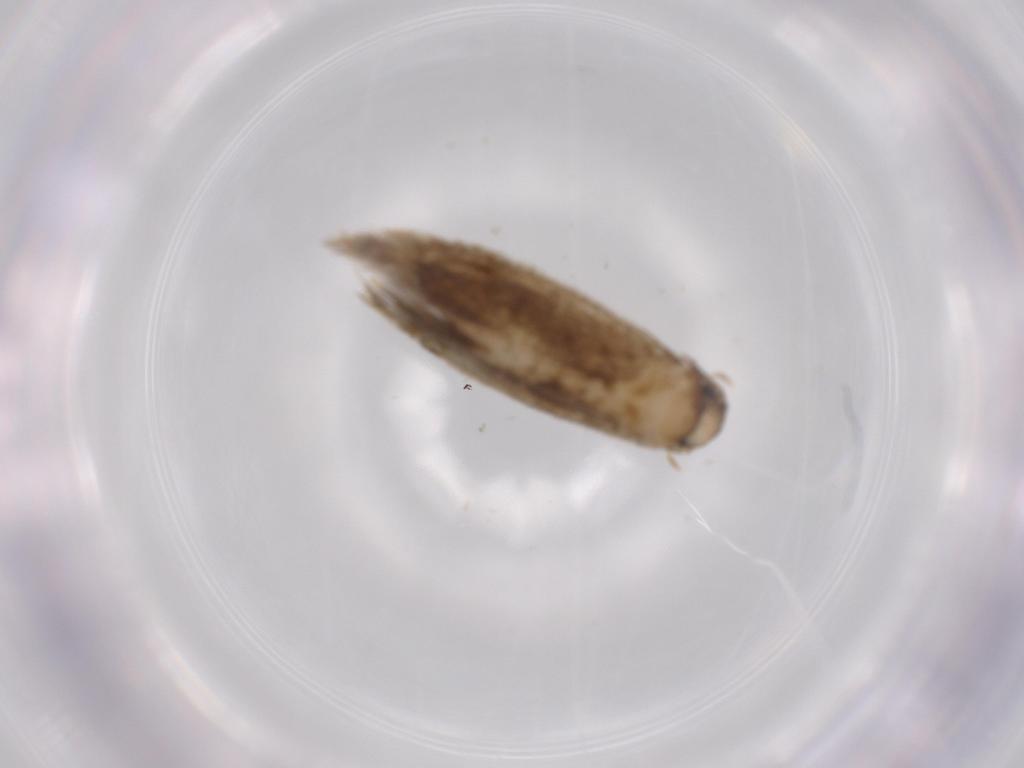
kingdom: Animalia
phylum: Arthropoda
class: Insecta
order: Lepidoptera
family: Tineidae
